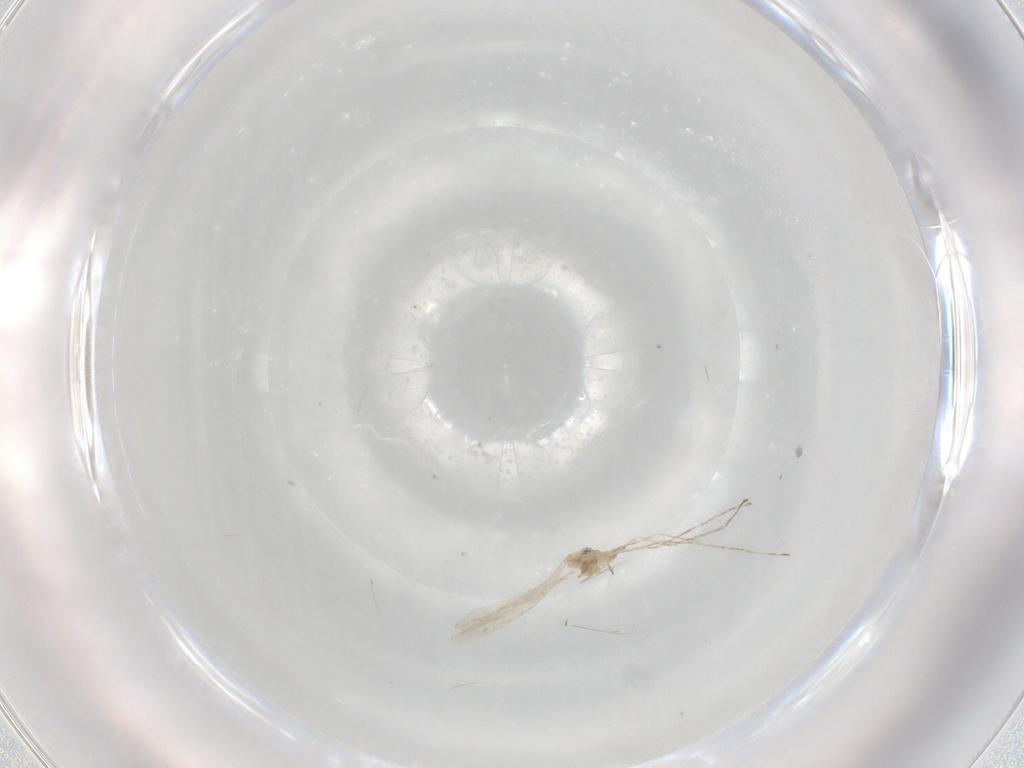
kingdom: Animalia
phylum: Arthropoda
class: Insecta
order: Diptera
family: Cecidomyiidae
